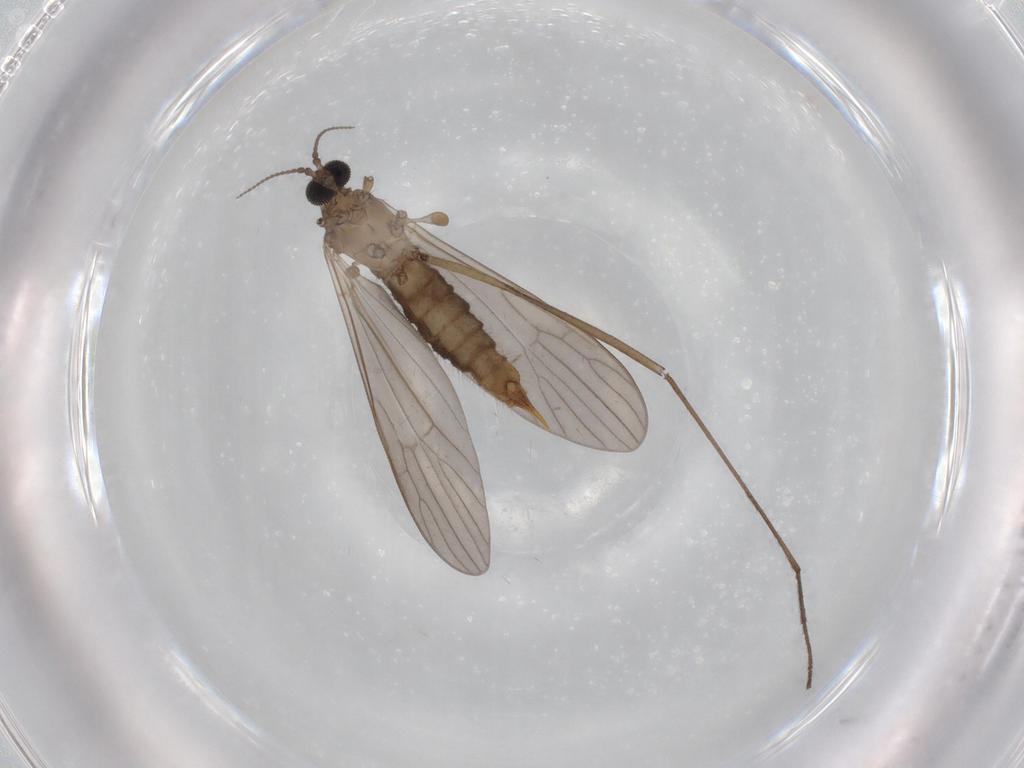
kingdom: Animalia
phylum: Arthropoda
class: Insecta
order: Diptera
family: Chironomidae
